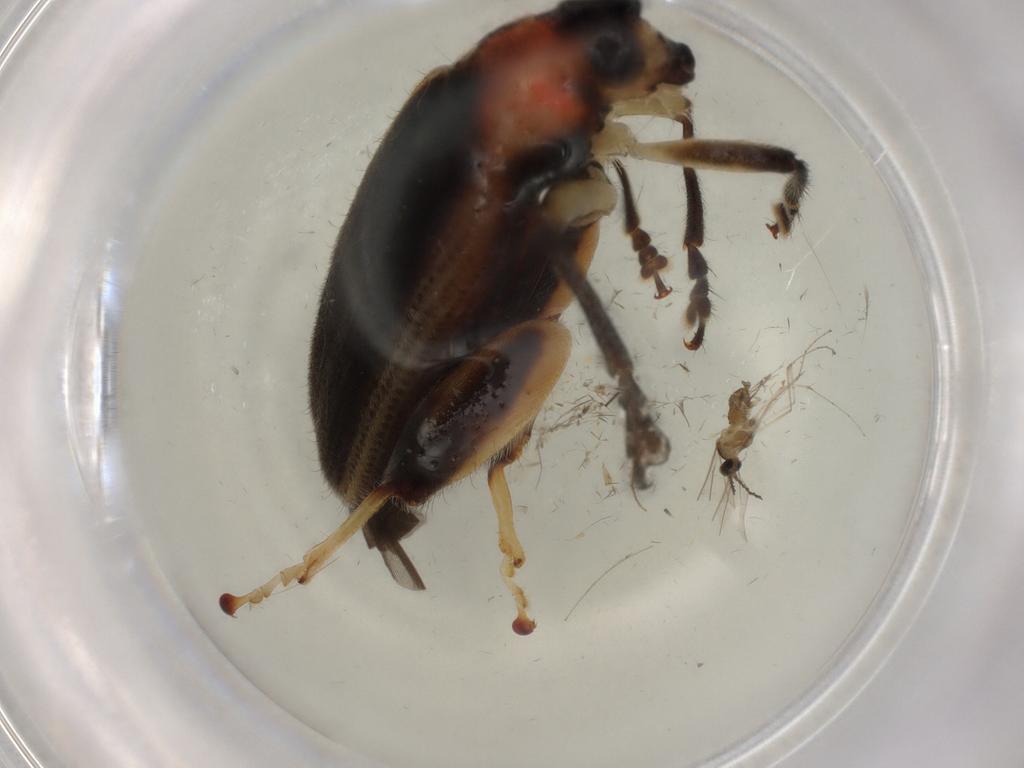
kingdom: Animalia
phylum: Arthropoda
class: Insecta
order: Coleoptera
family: Chrysomelidae
